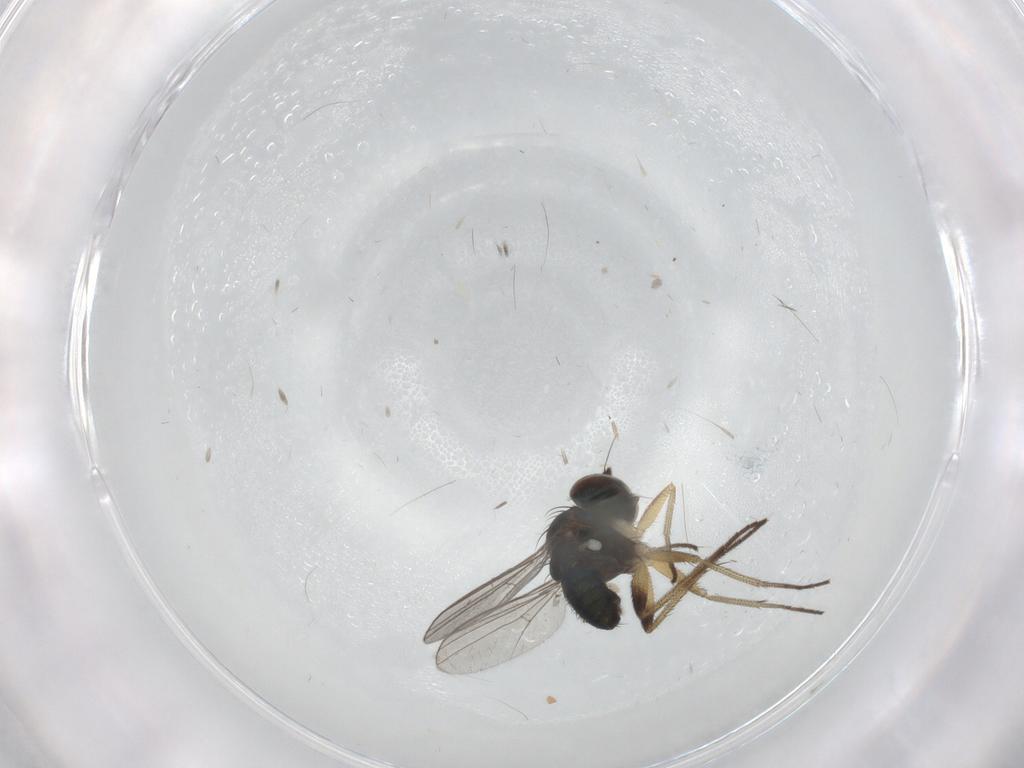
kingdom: Animalia
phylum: Arthropoda
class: Insecta
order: Diptera
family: Dolichopodidae
